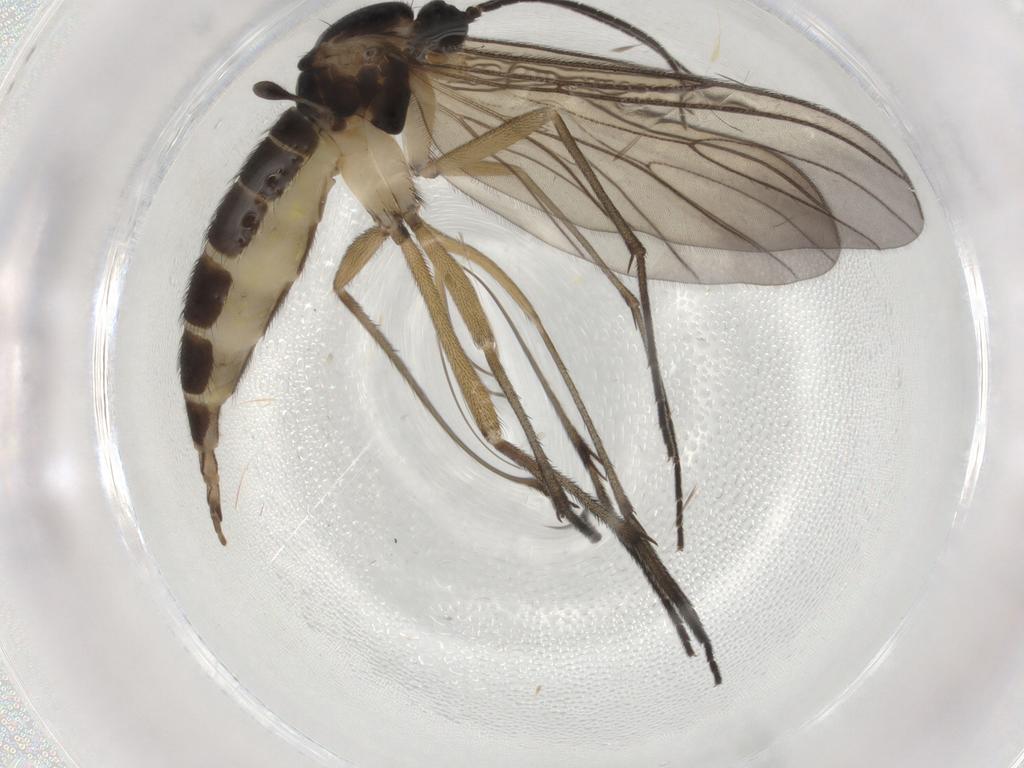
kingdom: Animalia
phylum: Arthropoda
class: Insecta
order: Diptera
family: Sciaridae
